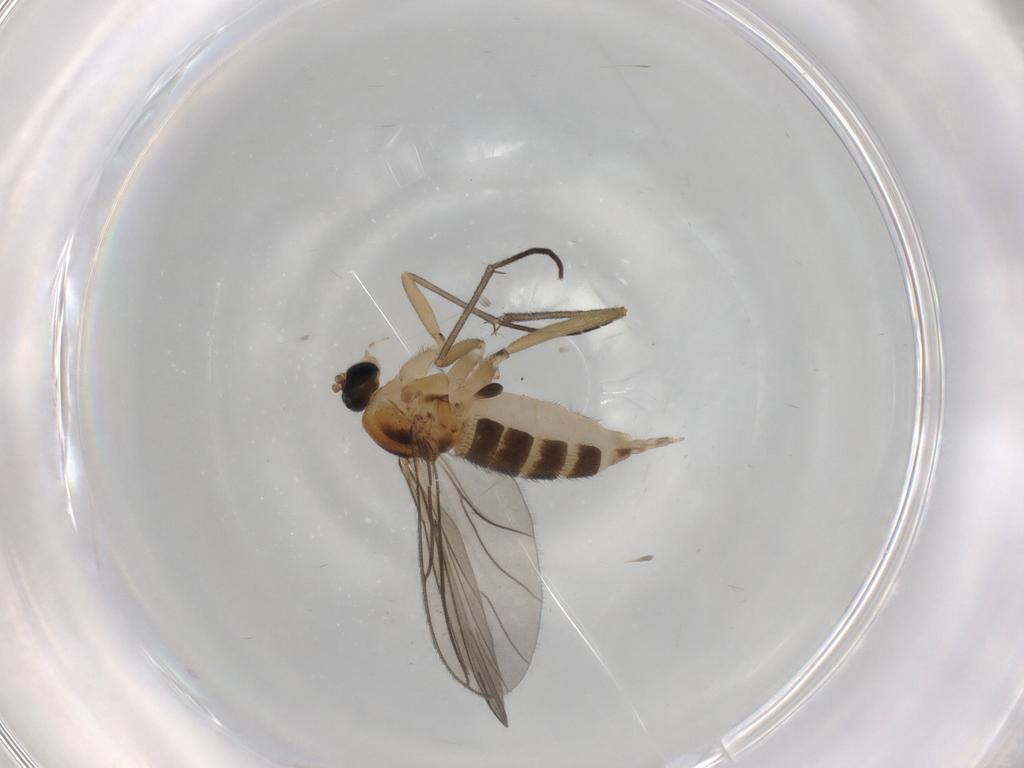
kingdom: Animalia
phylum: Arthropoda
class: Insecta
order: Diptera
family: Sciaridae
